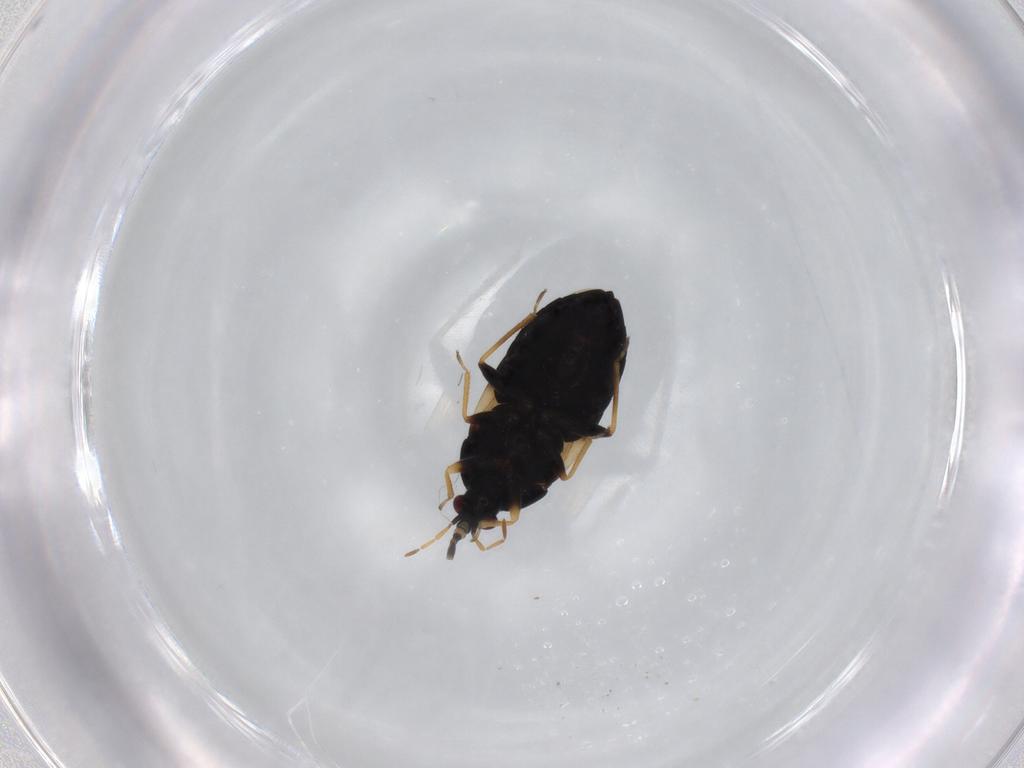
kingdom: Animalia
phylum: Arthropoda
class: Insecta
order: Hemiptera
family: Aphididae
